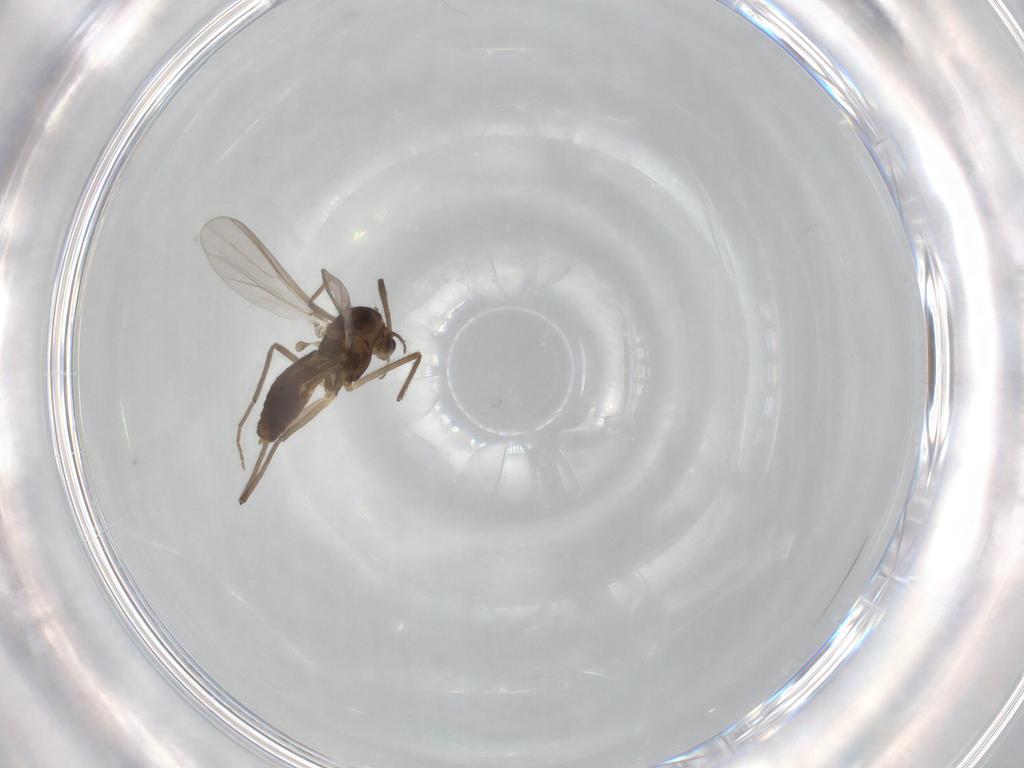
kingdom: Animalia
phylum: Arthropoda
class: Insecta
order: Diptera
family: Chironomidae
